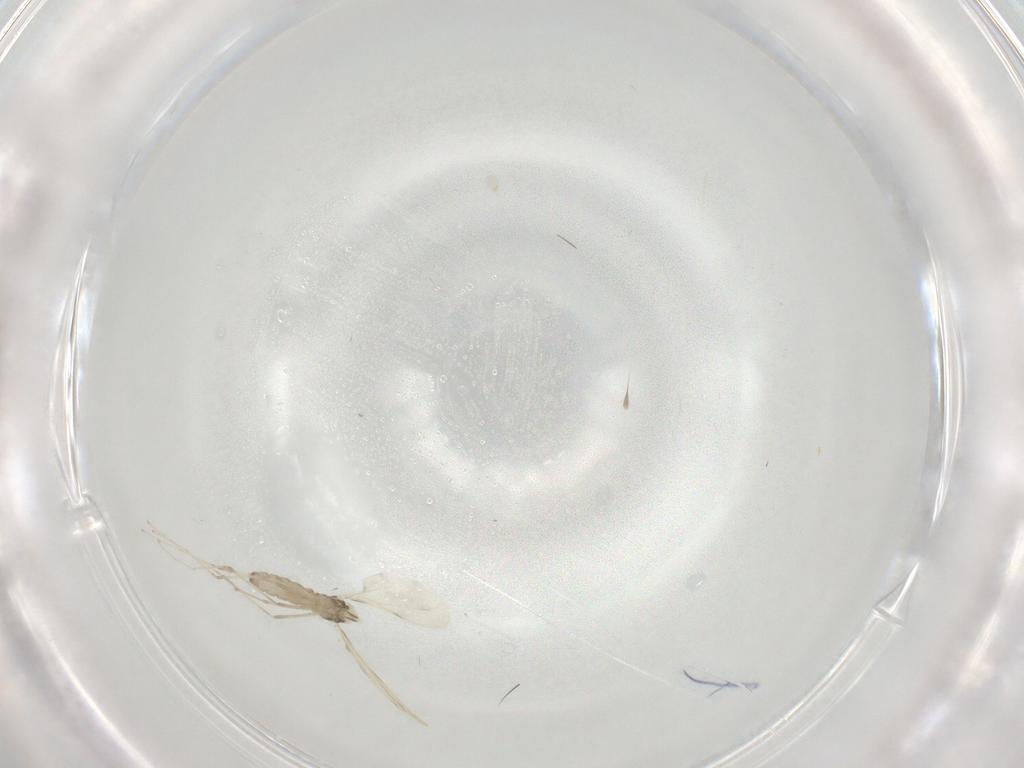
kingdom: Animalia
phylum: Arthropoda
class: Insecta
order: Diptera
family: Cecidomyiidae
